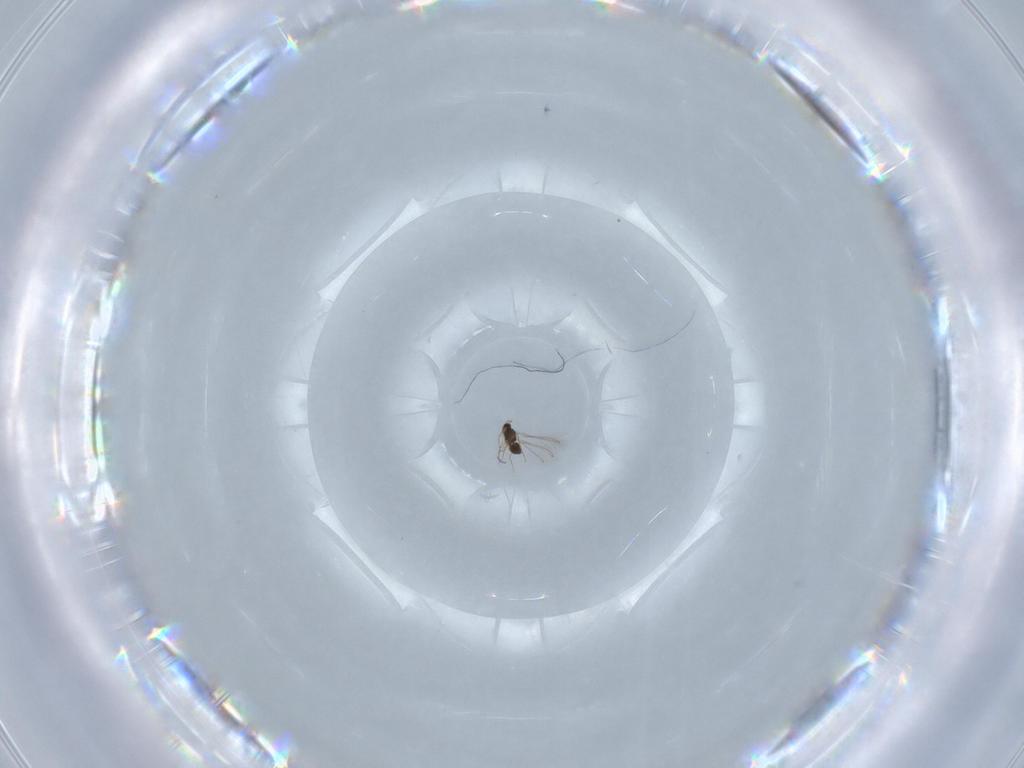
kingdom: Animalia
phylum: Arthropoda
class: Insecta
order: Hymenoptera
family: Mymaridae
